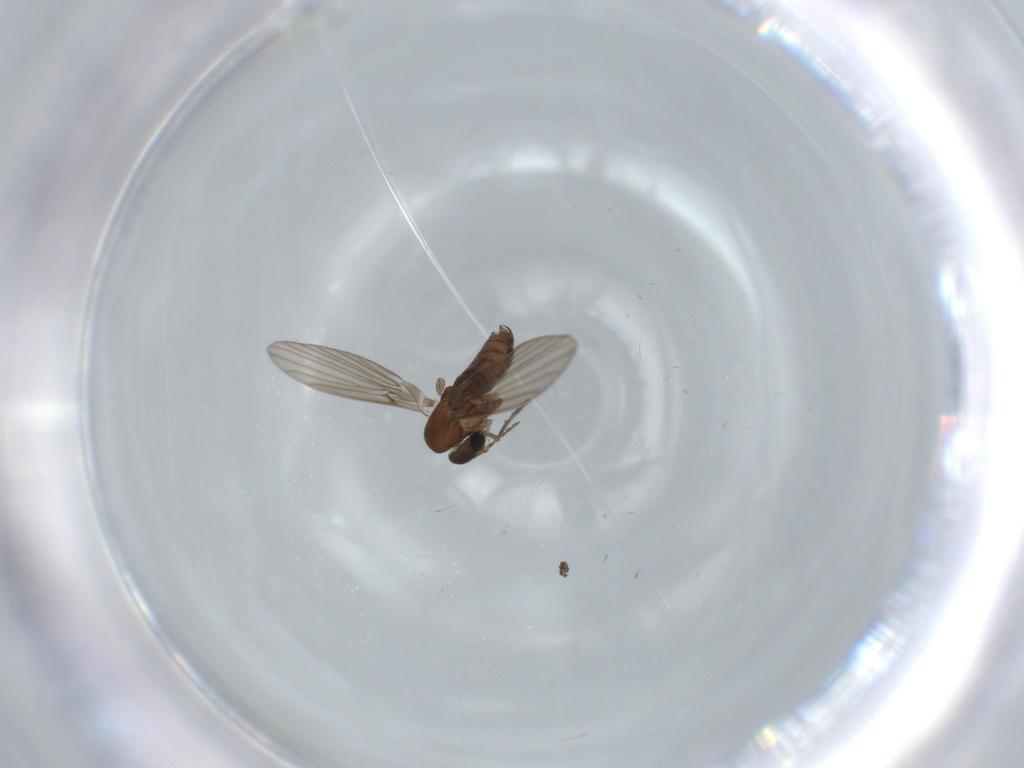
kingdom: Animalia
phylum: Arthropoda
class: Insecta
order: Diptera
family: Psychodidae
